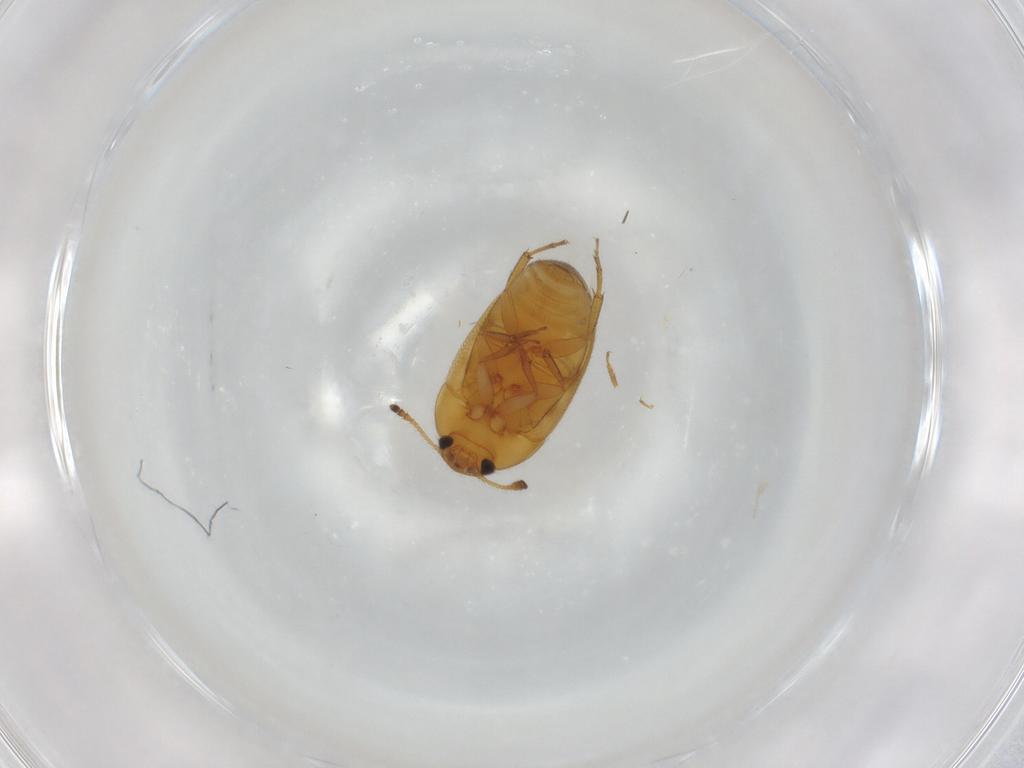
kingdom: Animalia
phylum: Arthropoda
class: Insecta
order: Coleoptera
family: Mycetophagidae
